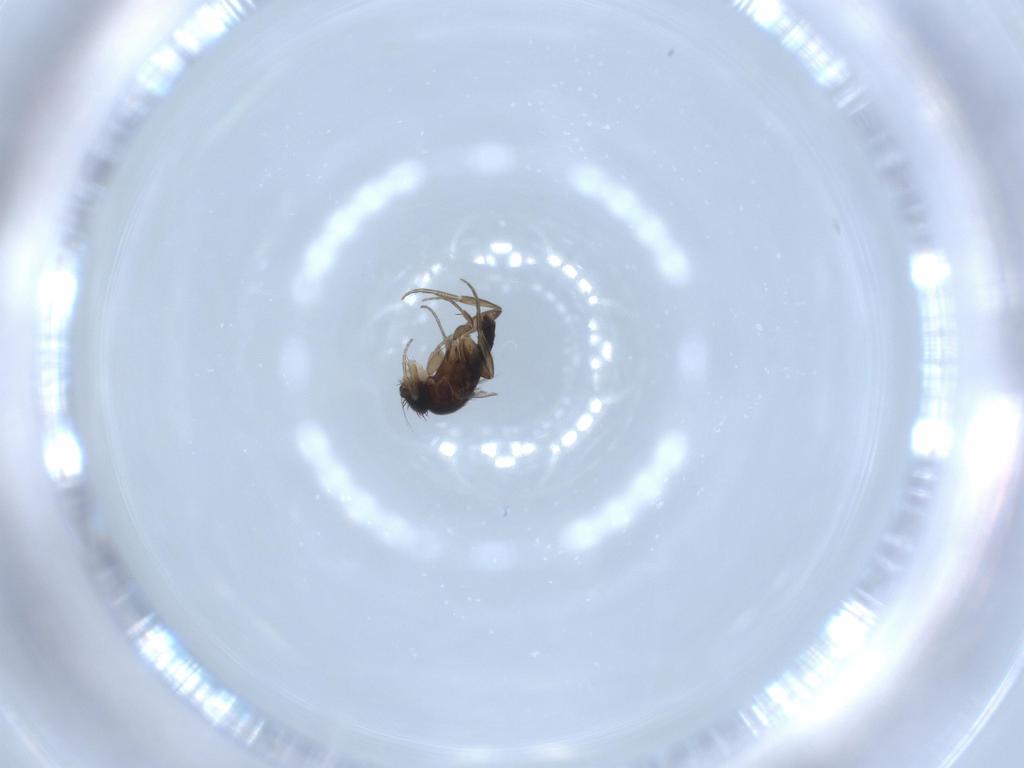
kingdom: Animalia
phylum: Arthropoda
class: Insecta
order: Diptera
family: Phoridae
